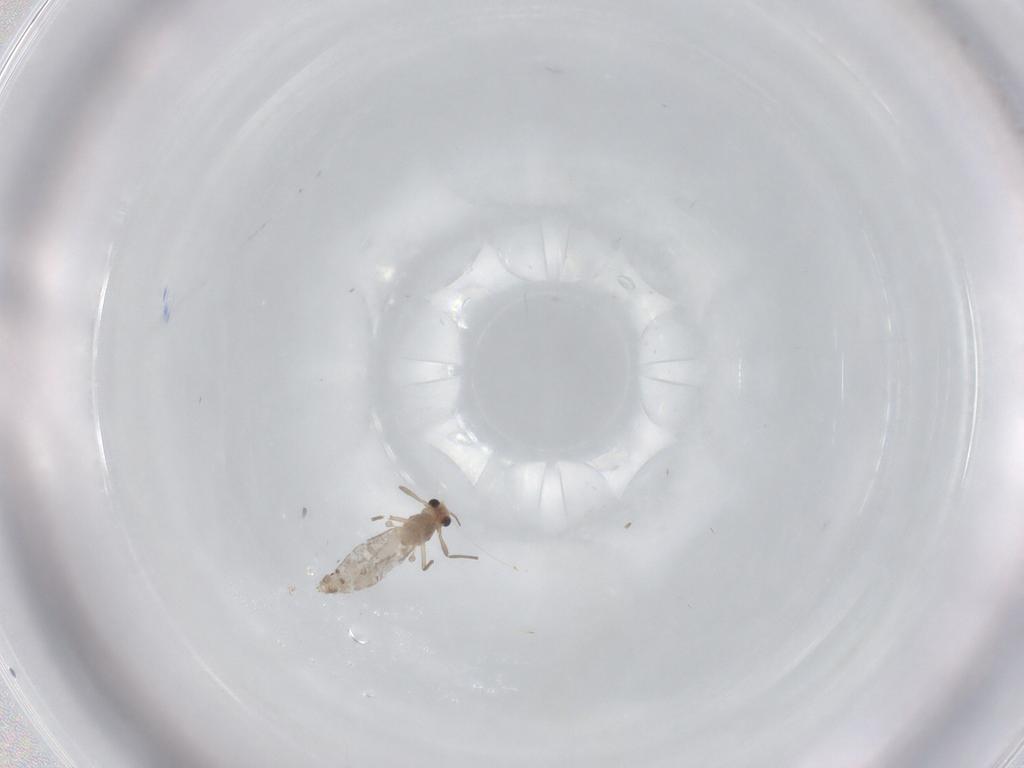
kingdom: Animalia
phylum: Arthropoda
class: Insecta
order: Diptera
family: Chironomidae
